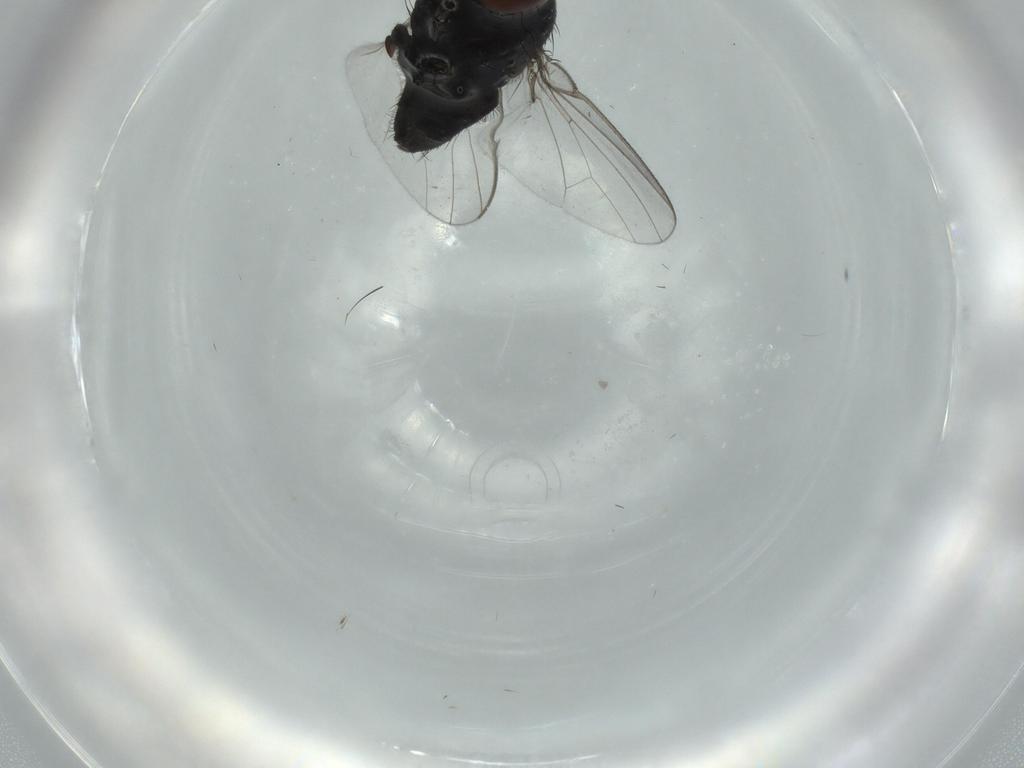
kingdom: Animalia
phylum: Arthropoda
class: Insecta
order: Diptera
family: Milichiidae
